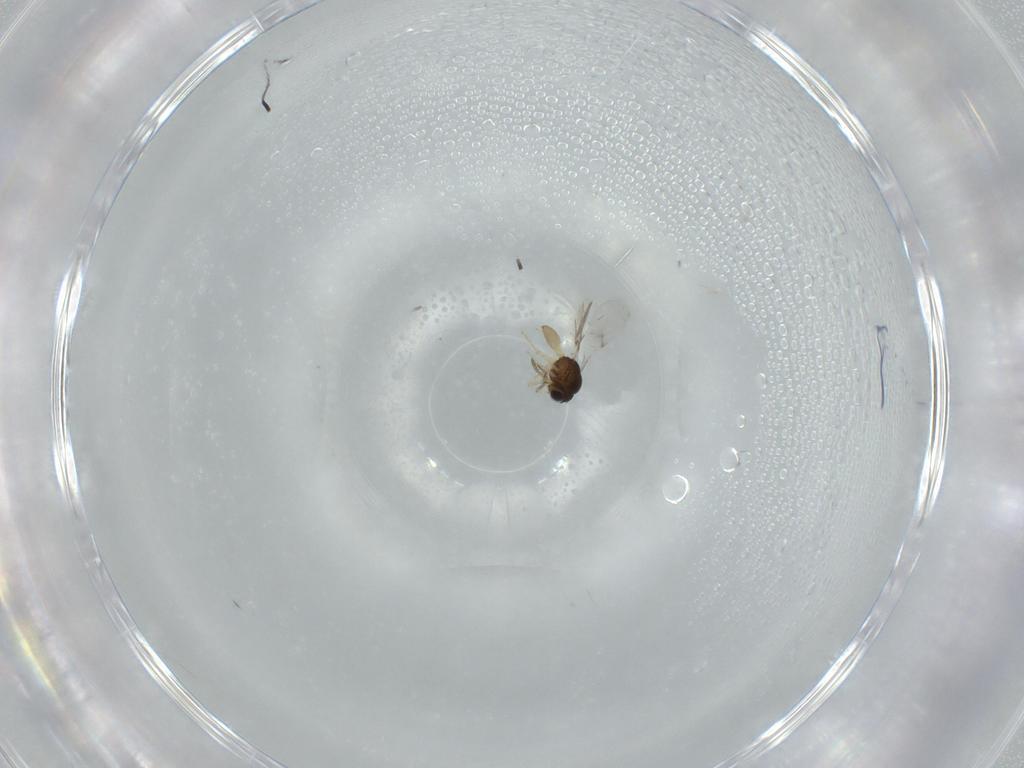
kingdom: Animalia
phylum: Arthropoda
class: Insecta
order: Hymenoptera
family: Scelionidae
